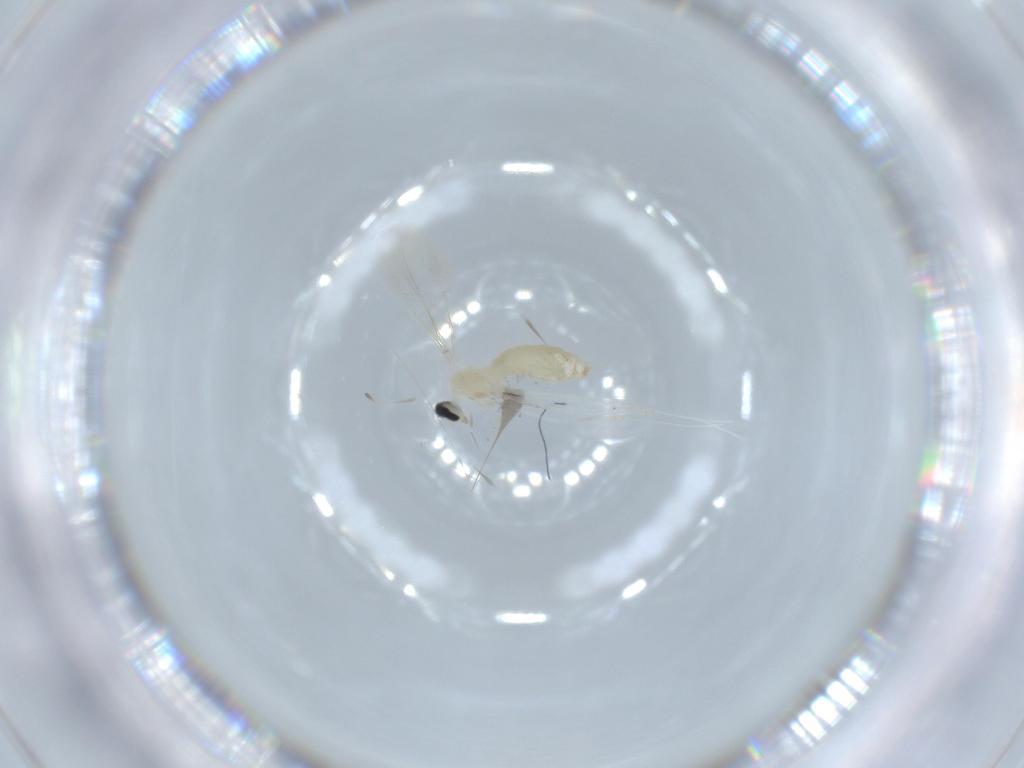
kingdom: Animalia
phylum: Arthropoda
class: Insecta
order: Diptera
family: Cecidomyiidae
